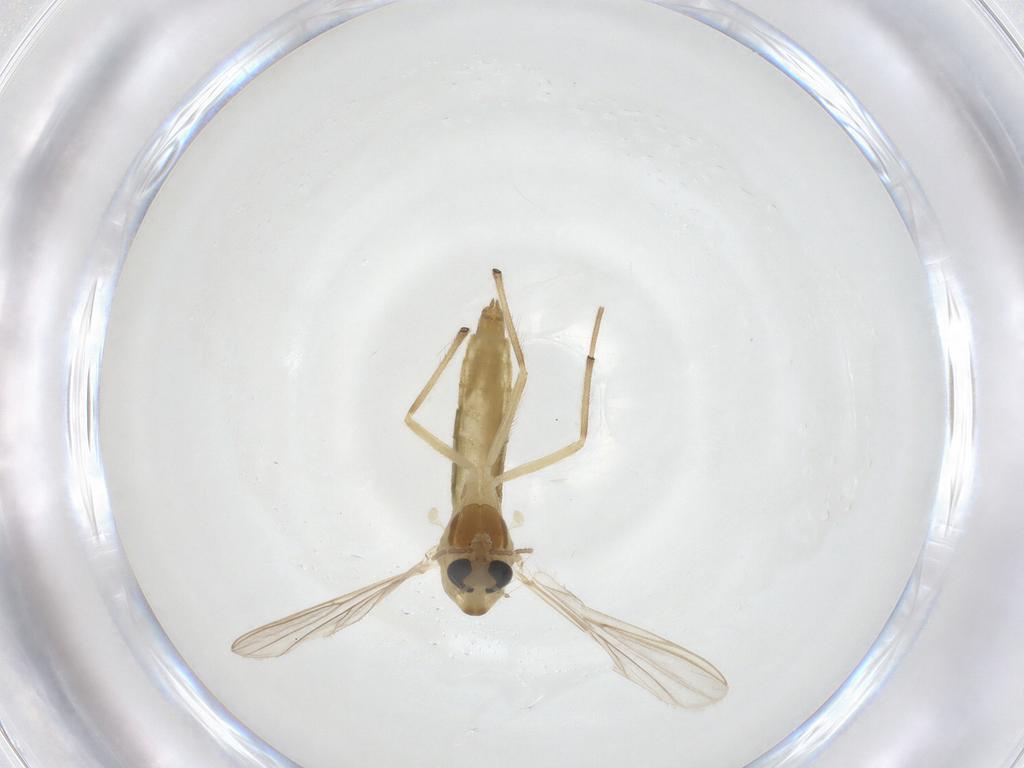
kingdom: Animalia
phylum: Arthropoda
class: Insecta
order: Diptera
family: Chironomidae
